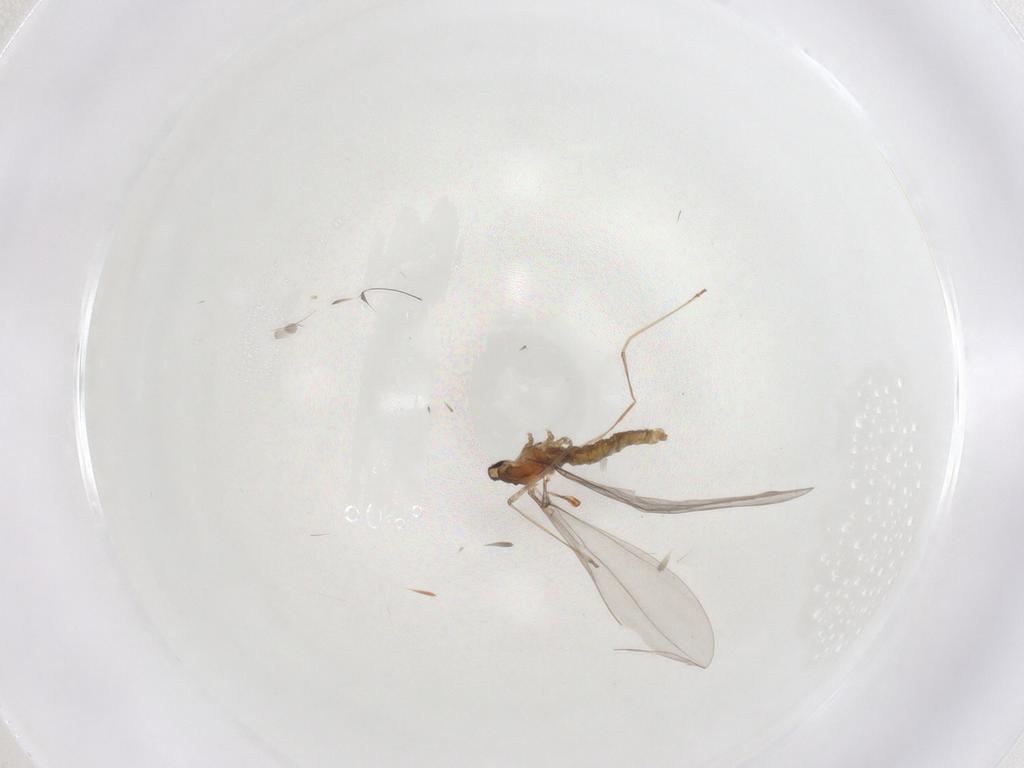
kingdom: Animalia
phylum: Arthropoda
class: Insecta
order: Diptera
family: Cecidomyiidae
